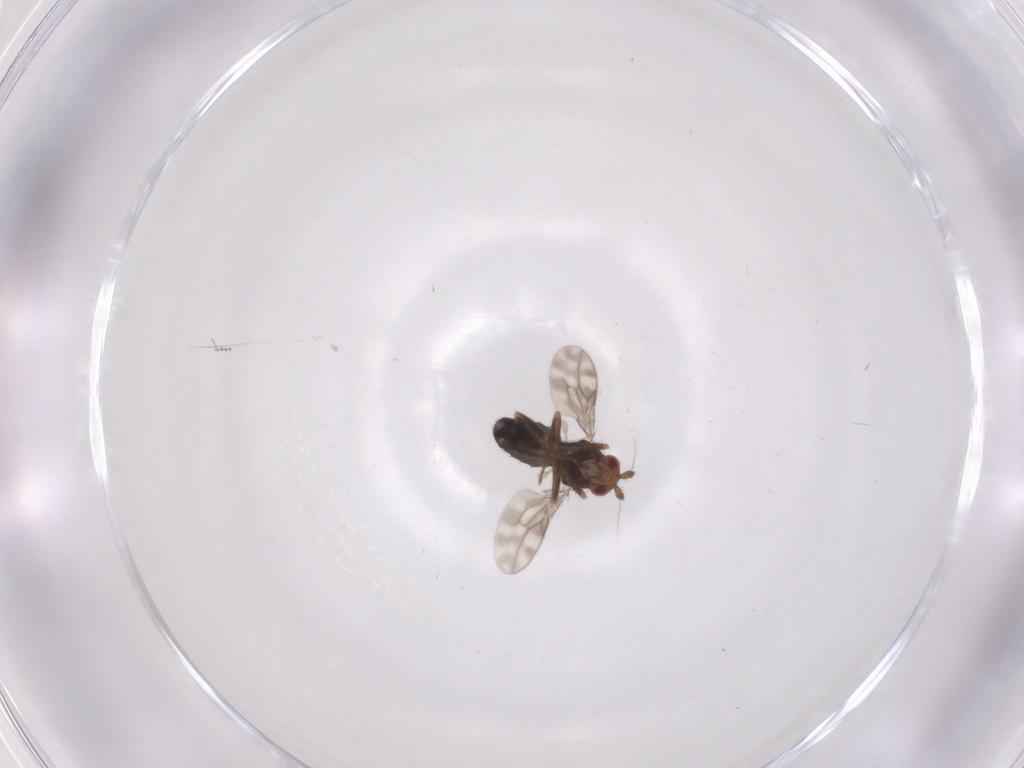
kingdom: Animalia
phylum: Arthropoda
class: Insecta
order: Diptera
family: Sphaeroceridae
